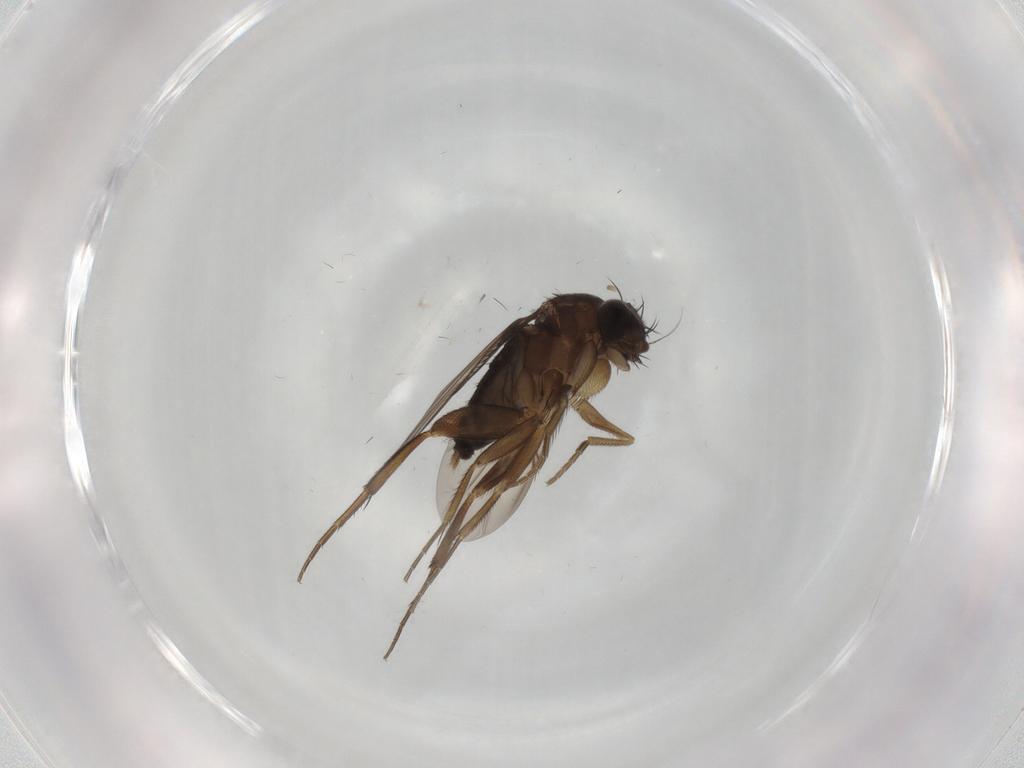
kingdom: Animalia
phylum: Arthropoda
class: Insecta
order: Diptera
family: Phoridae
